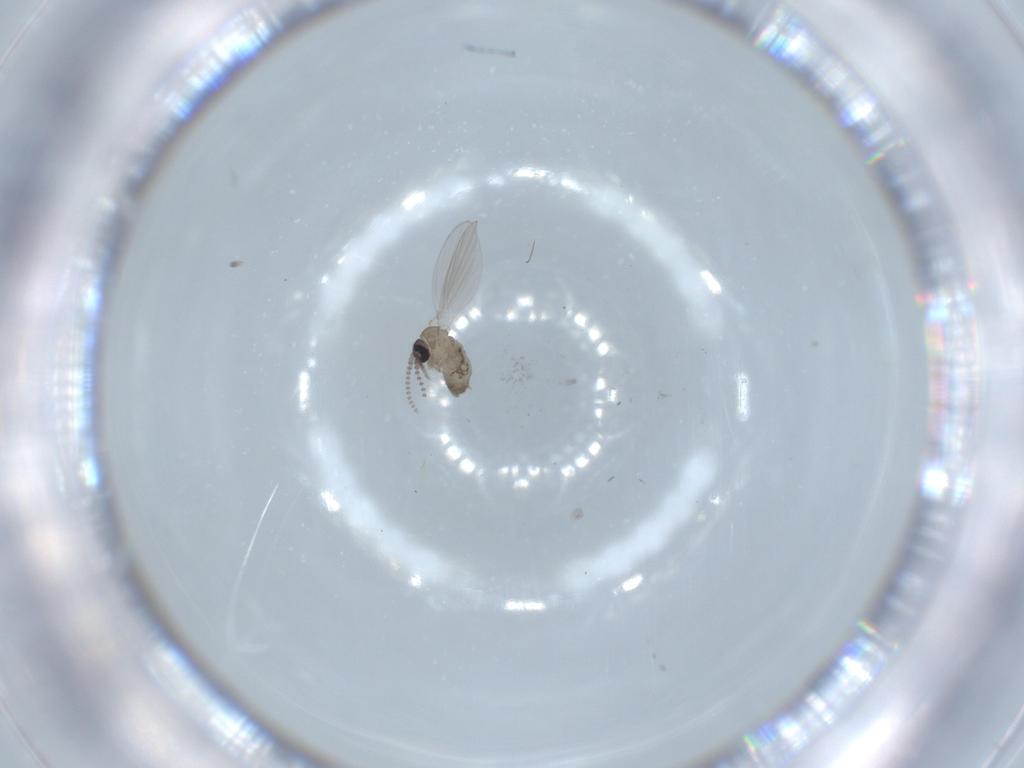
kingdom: Animalia
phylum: Arthropoda
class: Insecta
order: Diptera
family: Psychodidae
